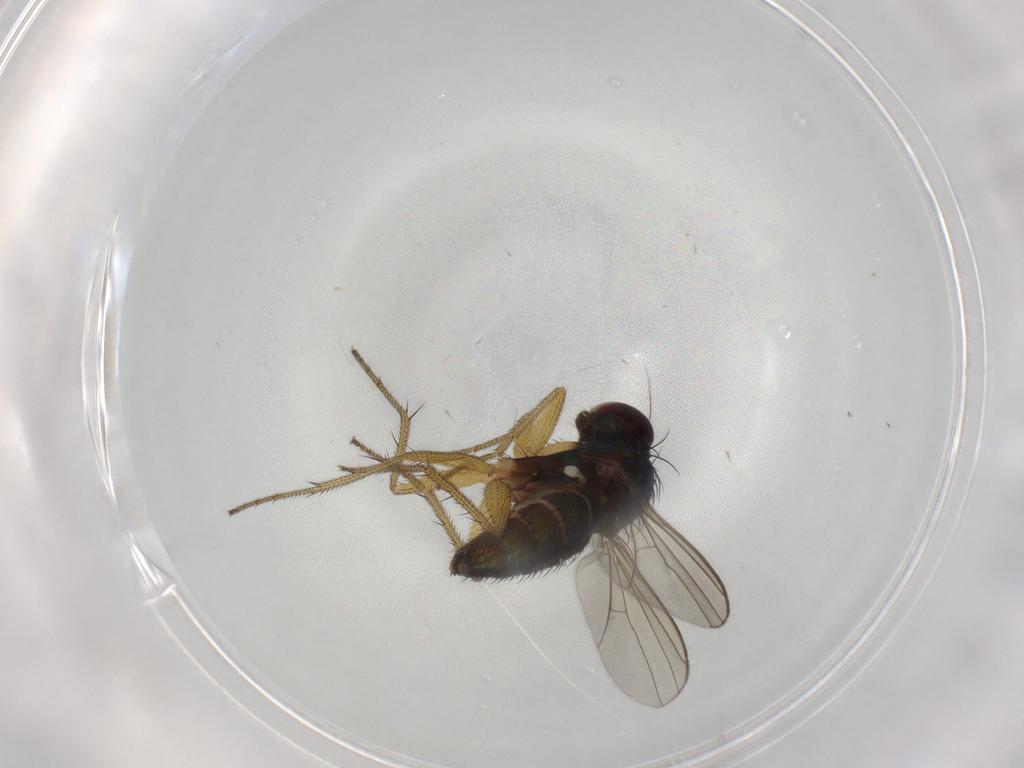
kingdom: Animalia
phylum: Arthropoda
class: Insecta
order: Diptera
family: Dolichopodidae
